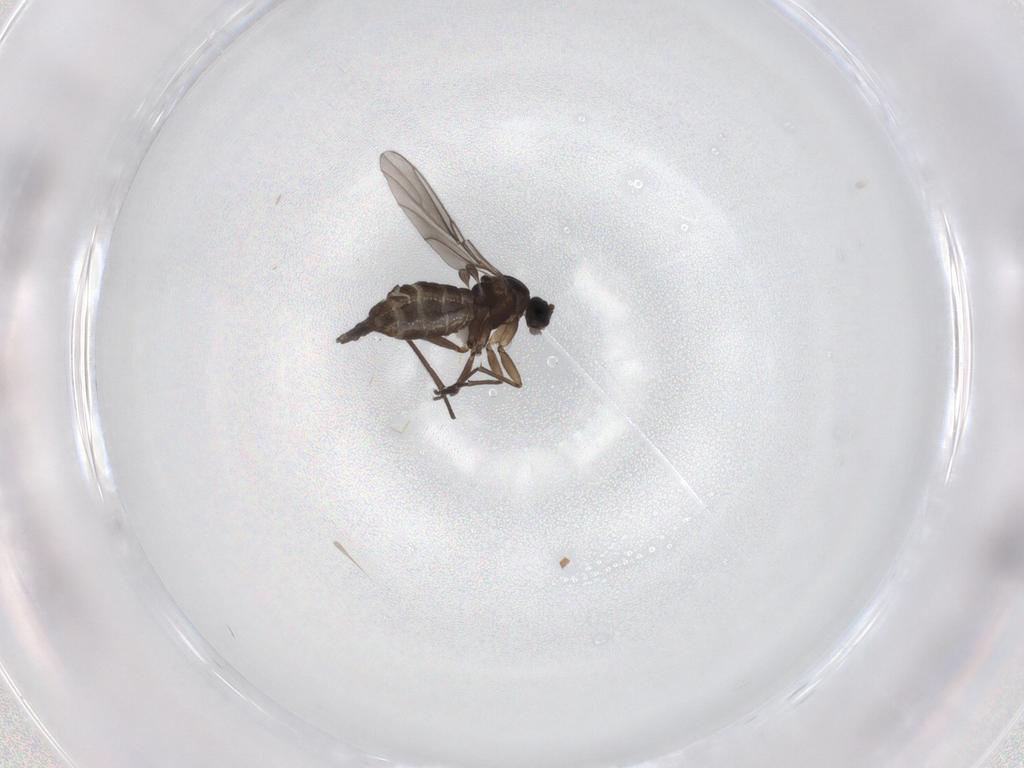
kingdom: Animalia
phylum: Arthropoda
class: Insecta
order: Diptera
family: Sciaridae
